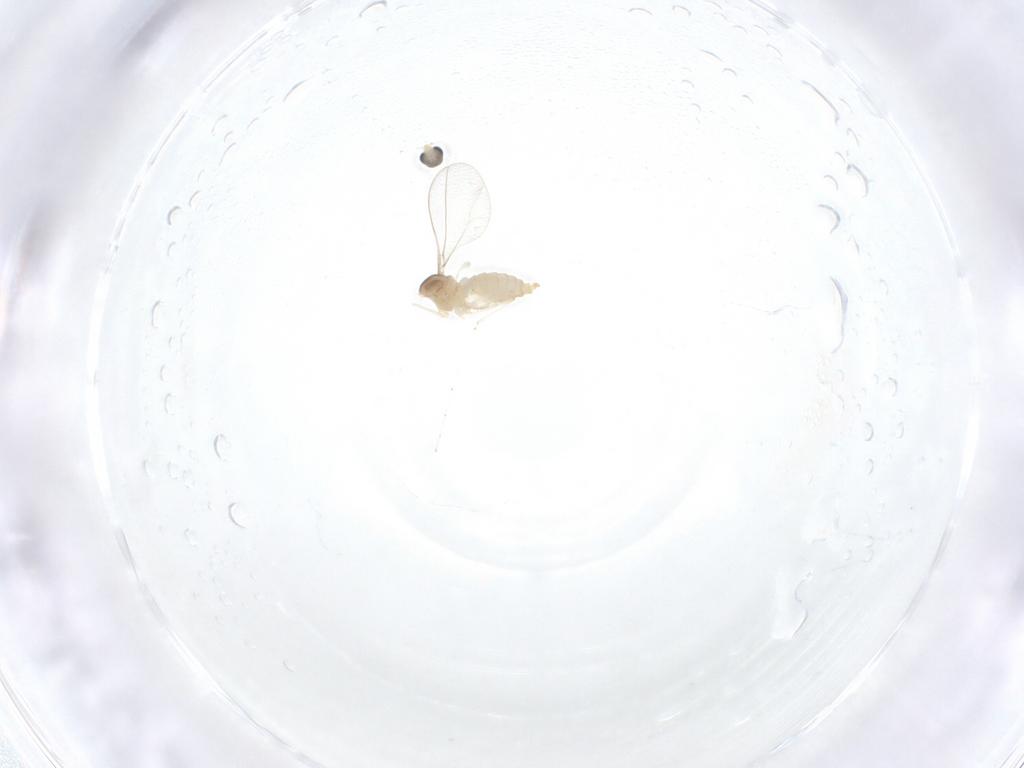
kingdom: Animalia
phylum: Arthropoda
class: Insecta
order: Diptera
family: Cecidomyiidae
